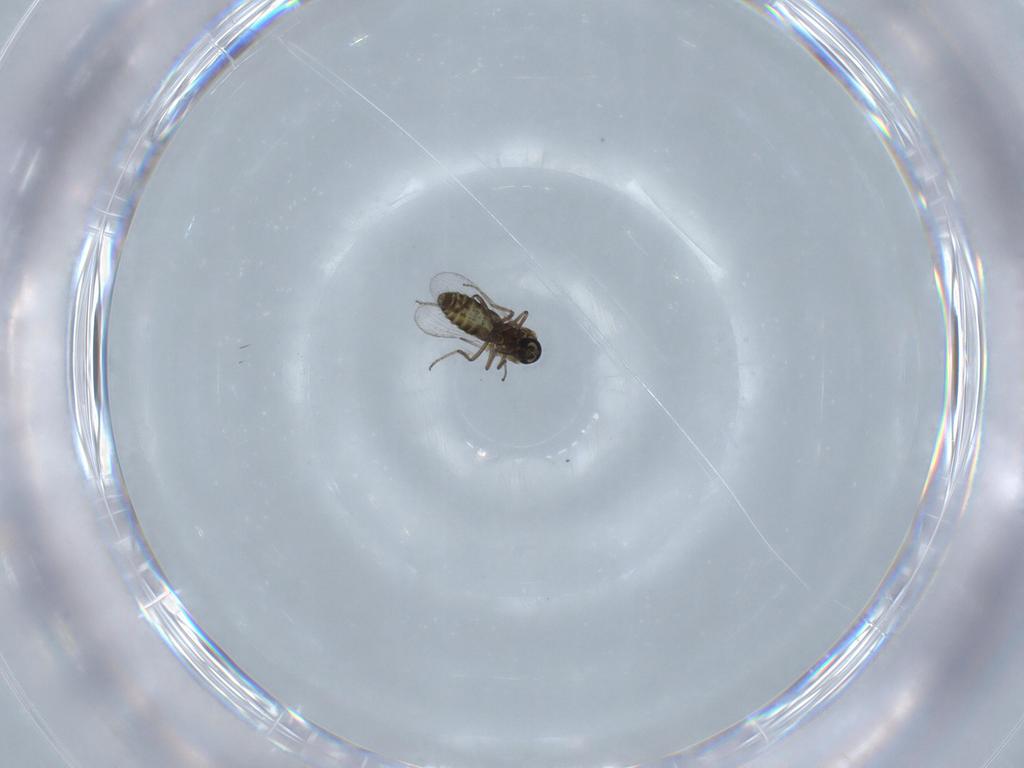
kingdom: Animalia
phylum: Arthropoda
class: Insecta
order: Diptera
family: Ceratopogonidae
